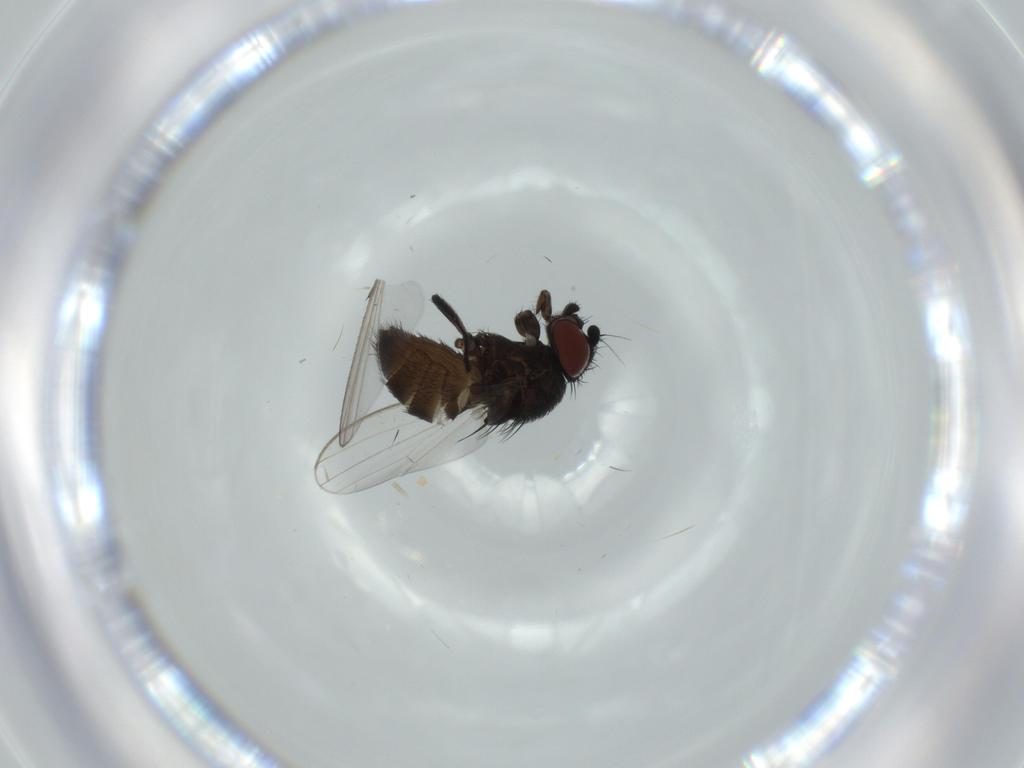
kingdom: Animalia
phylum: Arthropoda
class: Insecta
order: Diptera
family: Milichiidae
